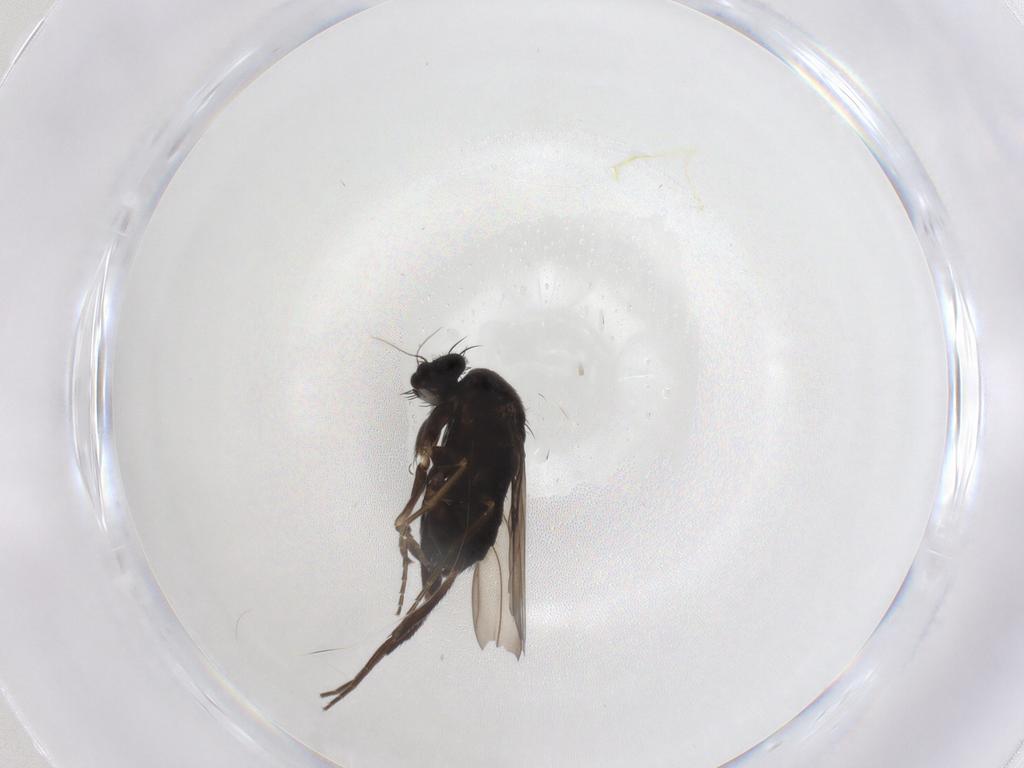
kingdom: Animalia
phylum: Arthropoda
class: Insecta
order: Diptera
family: Phoridae
